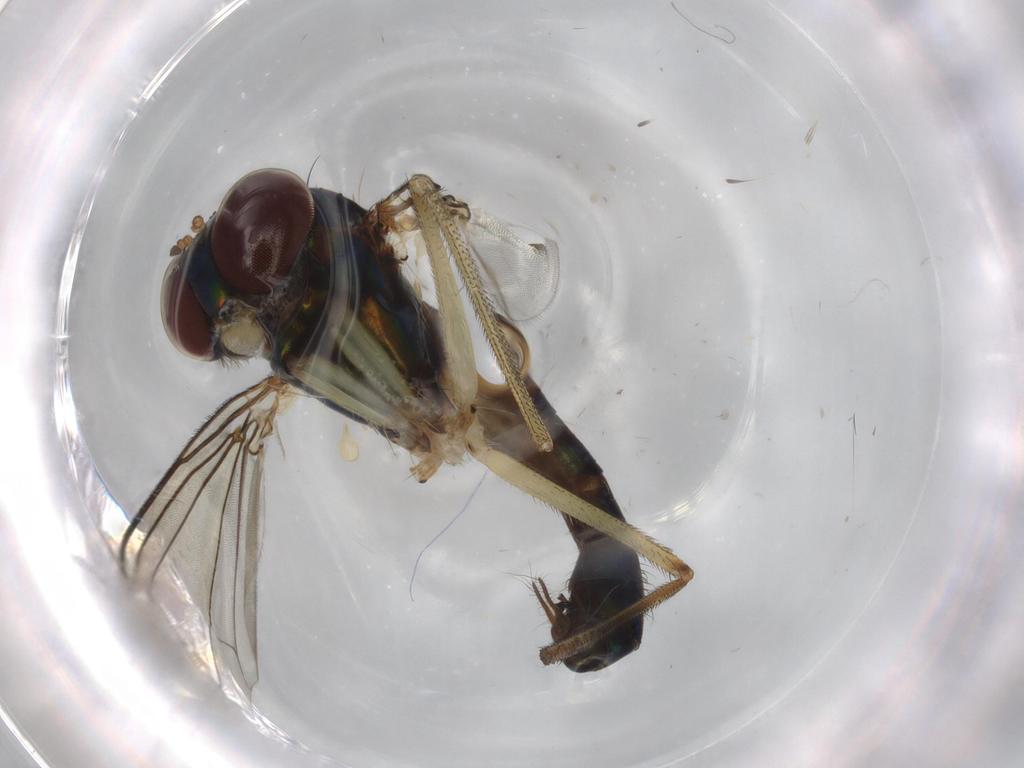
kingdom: Animalia
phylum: Arthropoda
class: Insecta
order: Diptera
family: Dolichopodidae
